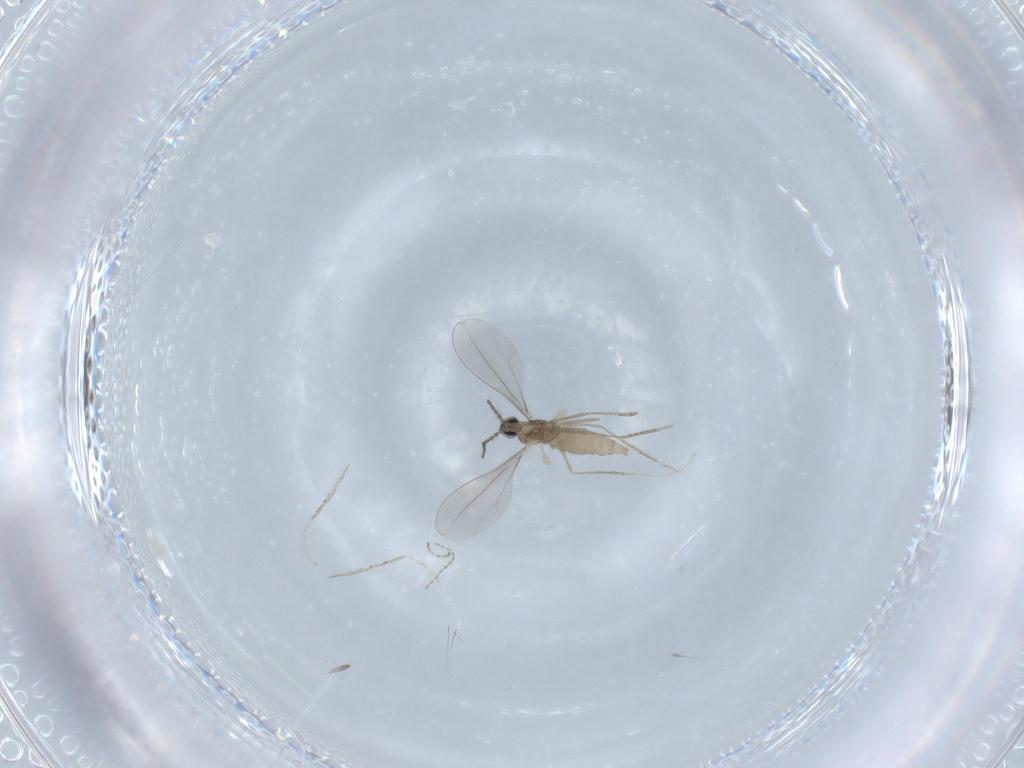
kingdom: Animalia
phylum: Arthropoda
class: Insecta
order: Diptera
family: Cecidomyiidae
